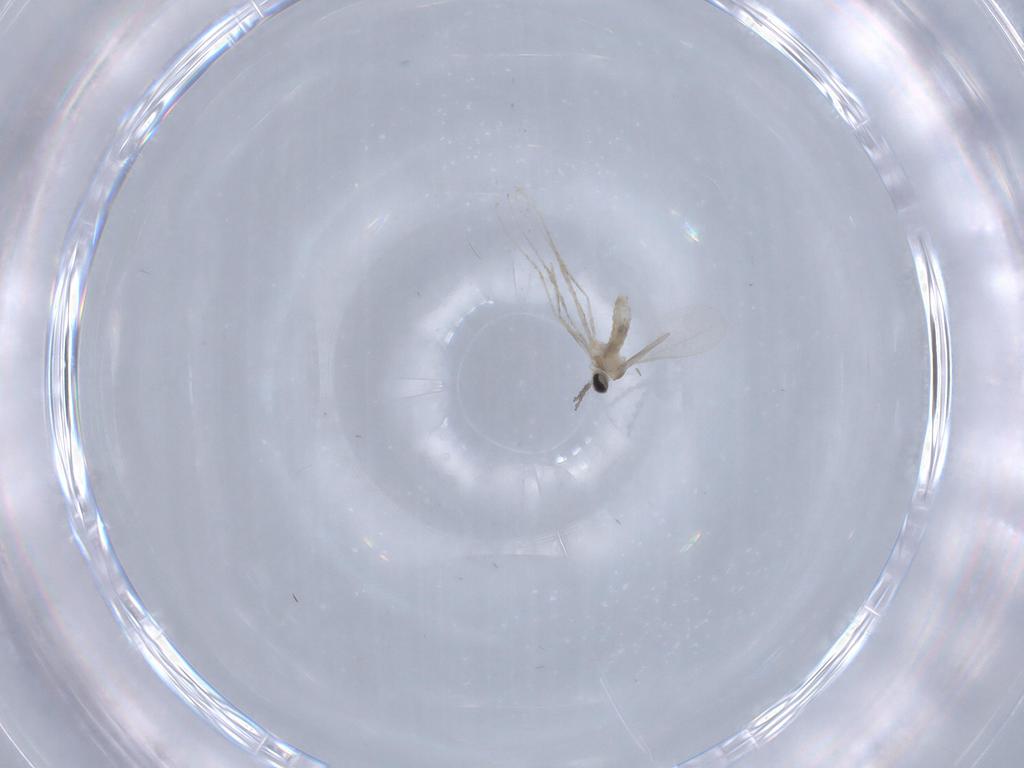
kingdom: Animalia
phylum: Arthropoda
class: Insecta
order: Diptera
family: Cecidomyiidae
